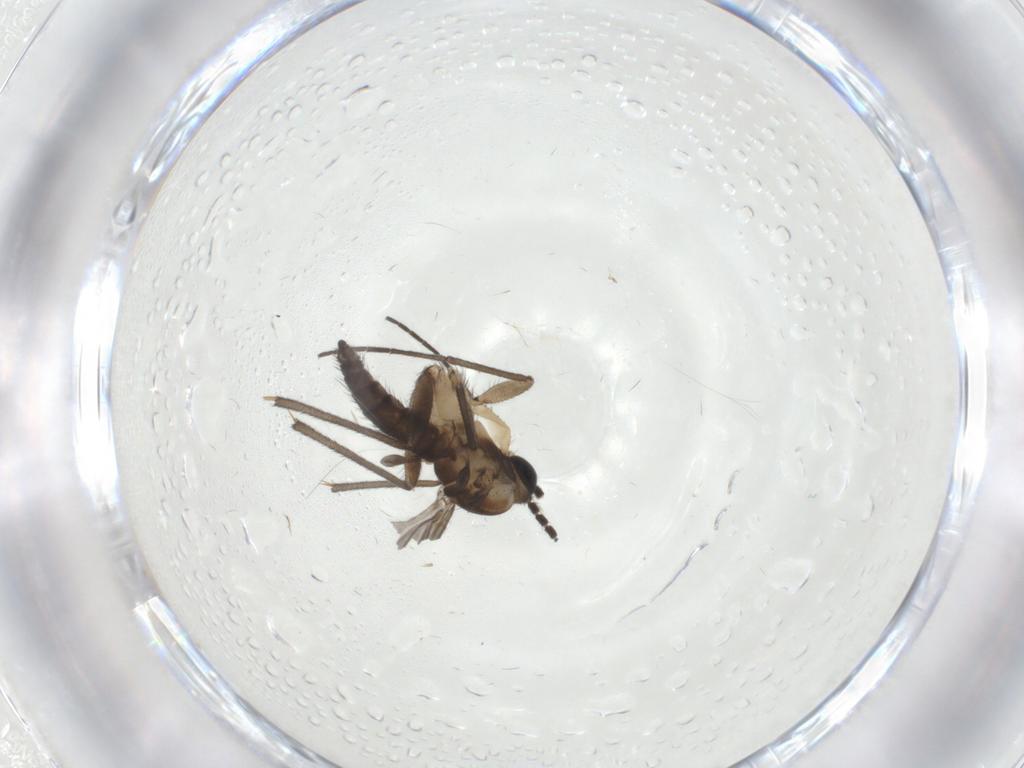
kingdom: Animalia
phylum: Arthropoda
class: Insecta
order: Diptera
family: Sciaridae
